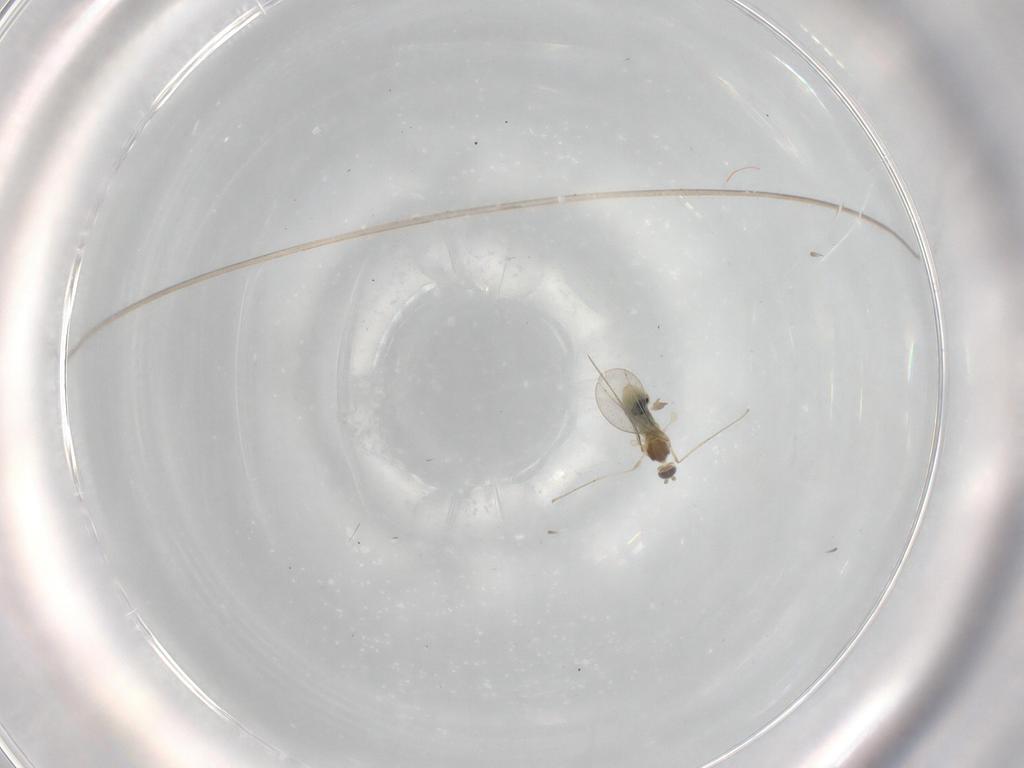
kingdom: Animalia
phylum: Arthropoda
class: Insecta
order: Diptera
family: Cecidomyiidae
